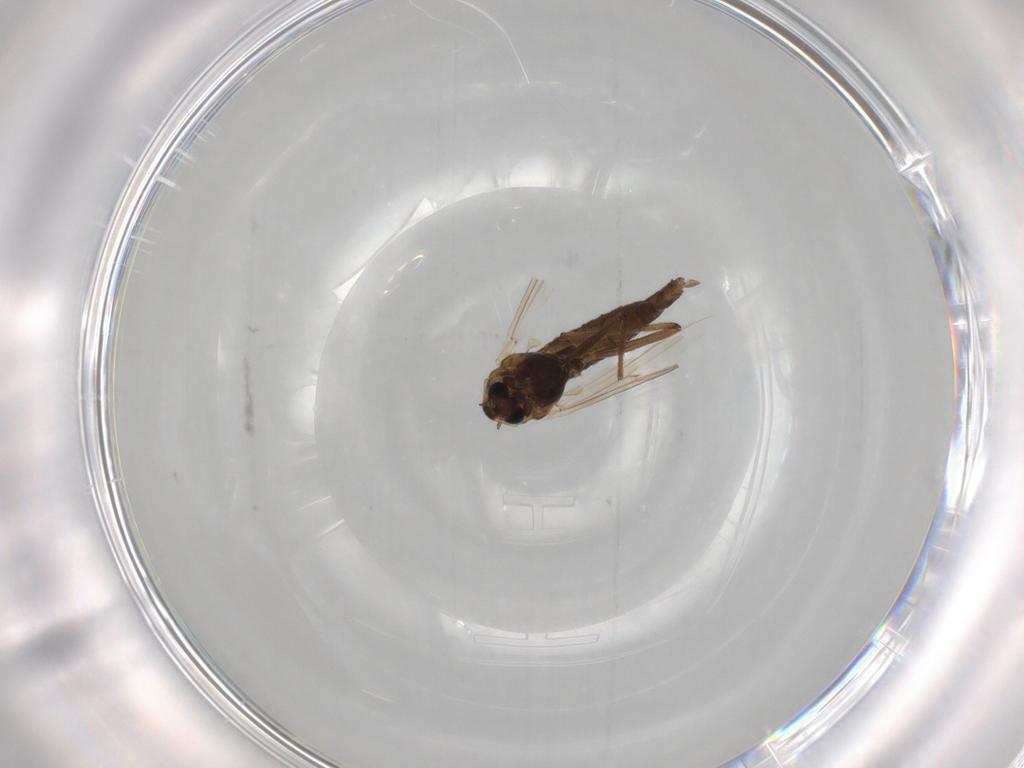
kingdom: Animalia
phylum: Arthropoda
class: Insecta
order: Diptera
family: Chironomidae
